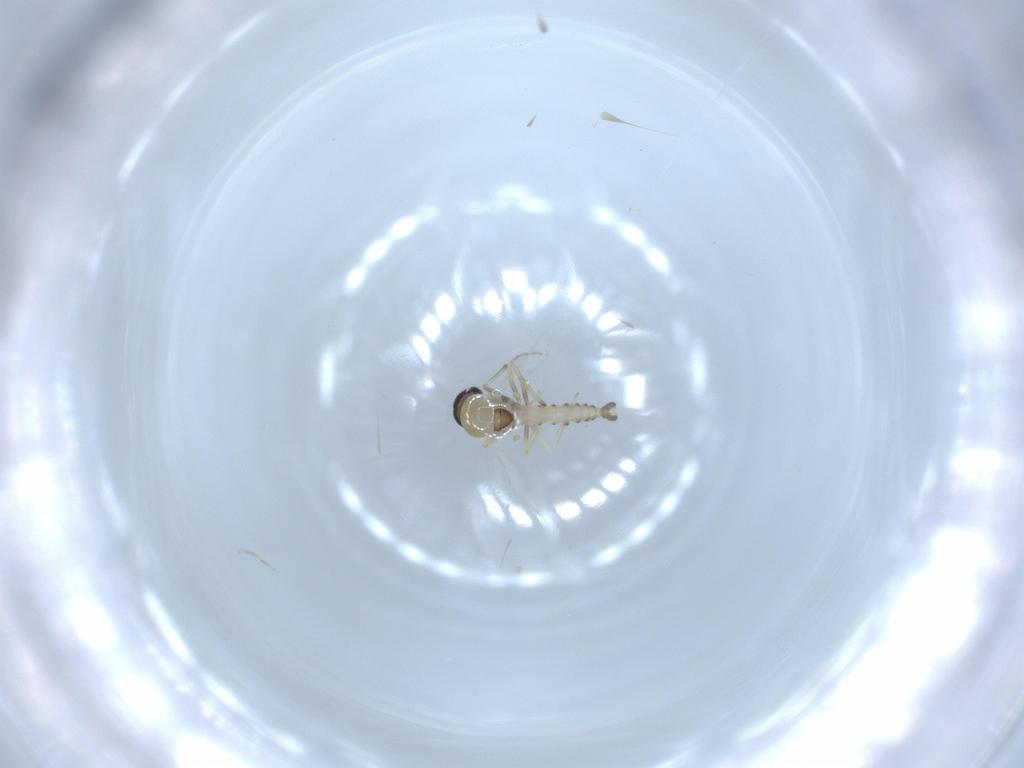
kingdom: Animalia
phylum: Arthropoda
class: Insecta
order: Diptera
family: Ceratopogonidae
